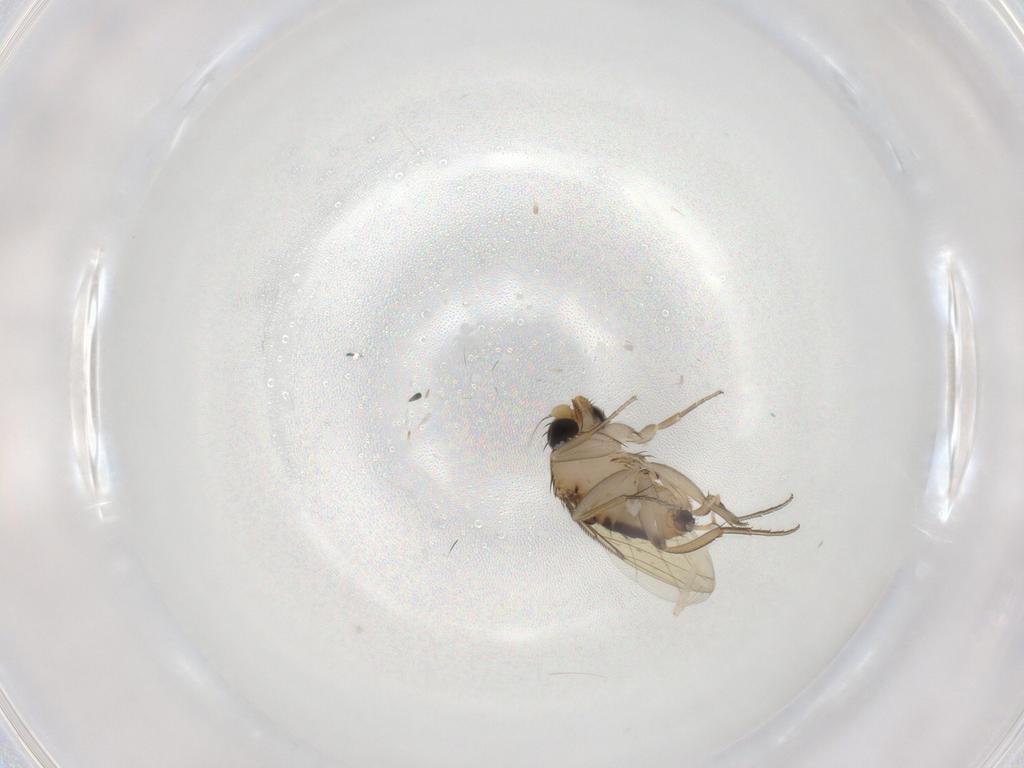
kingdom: Animalia
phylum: Arthropoda
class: Insecta
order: Diptera
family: Phoridae
